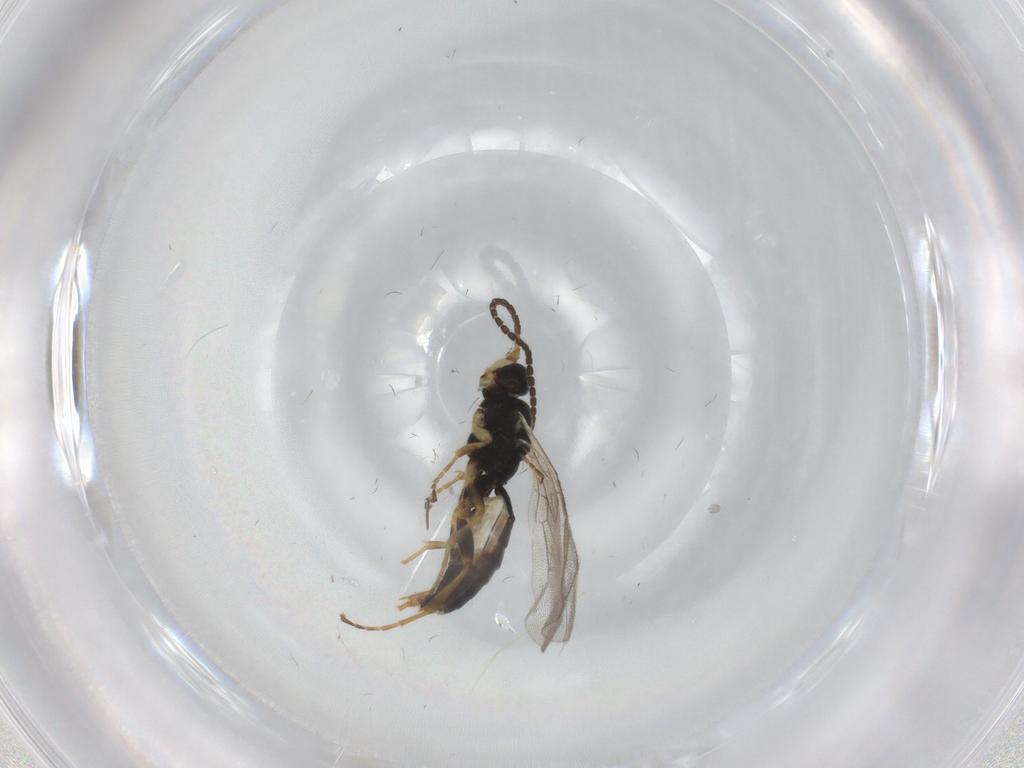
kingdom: Animalia
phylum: Arthropoda
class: Insecta
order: Hymenoptera
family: Ichneumonidae
